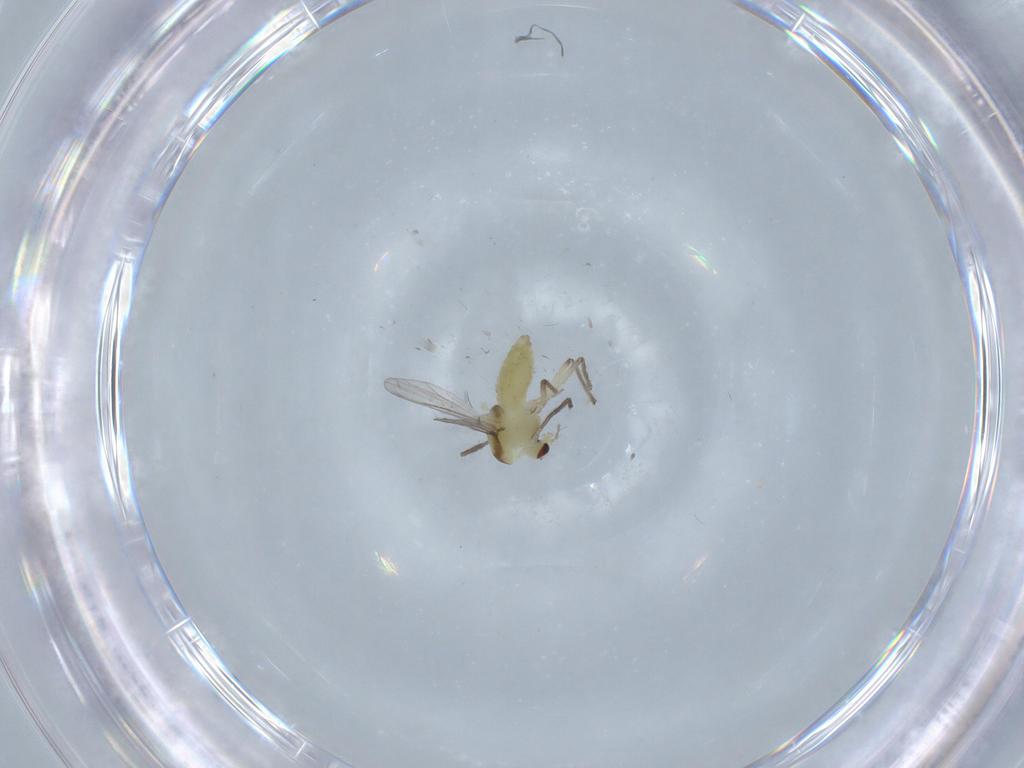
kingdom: Animalia
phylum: Arthropoda
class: Insecta
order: Diptera
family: Chironomidae
